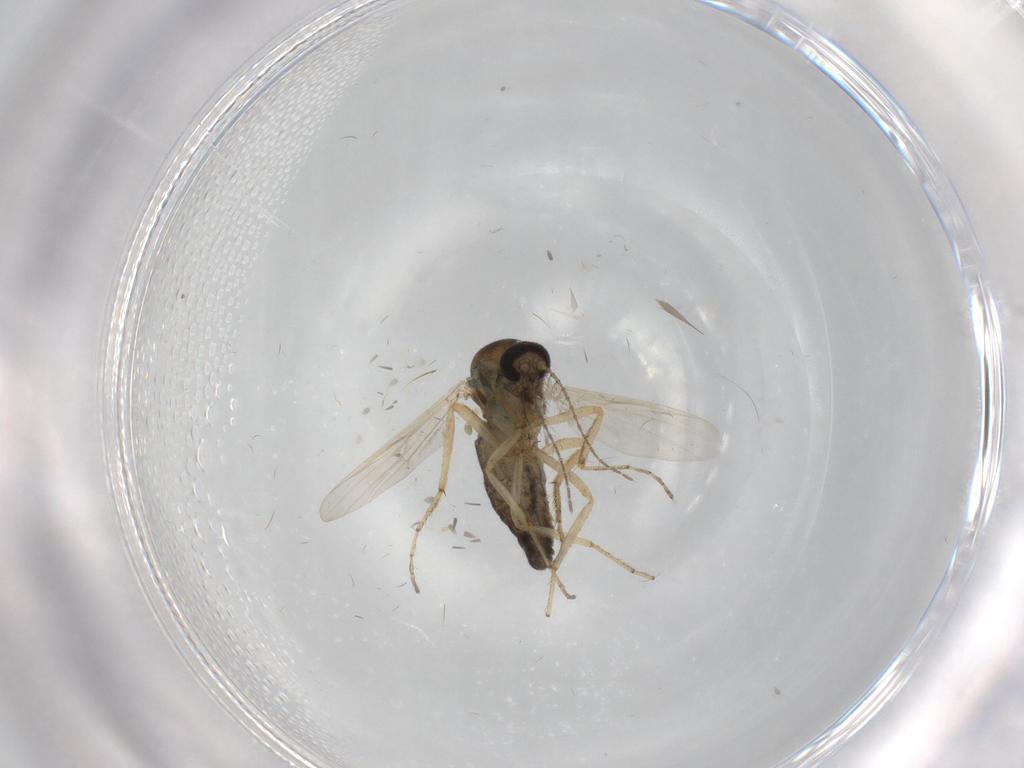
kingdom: Animalia
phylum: Arthropoda
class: Insecta
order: Diptera
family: Ceratopogonidae
